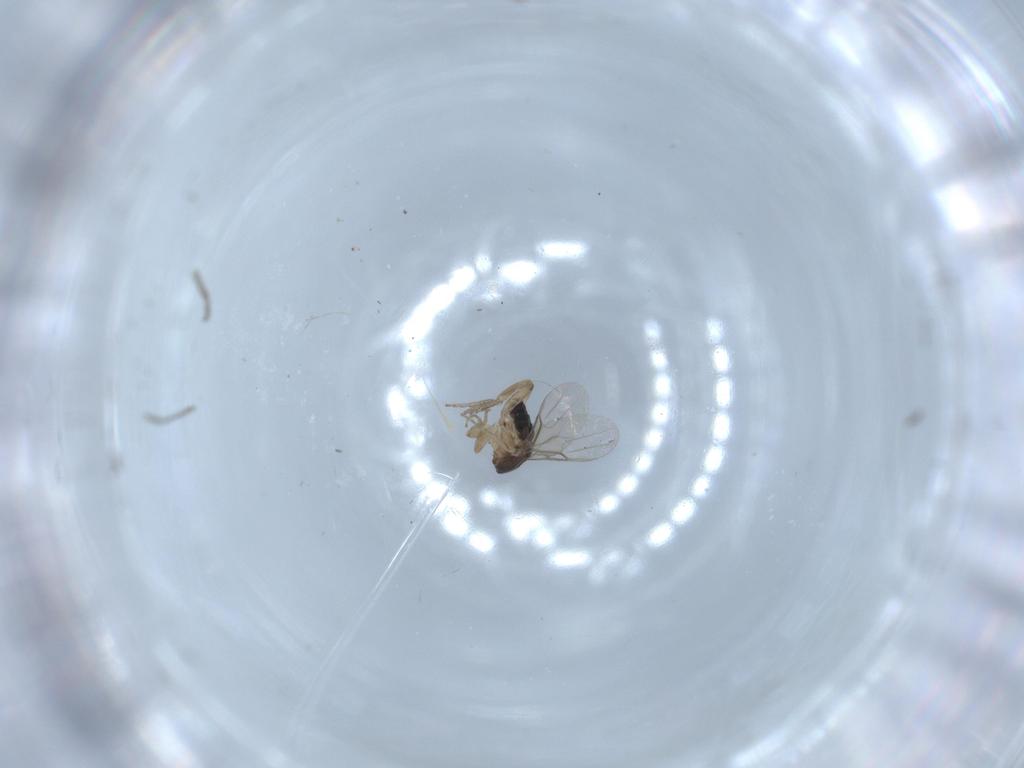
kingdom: Animalia
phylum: Arthropoda
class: Insecta
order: Diptera
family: Phoridae
